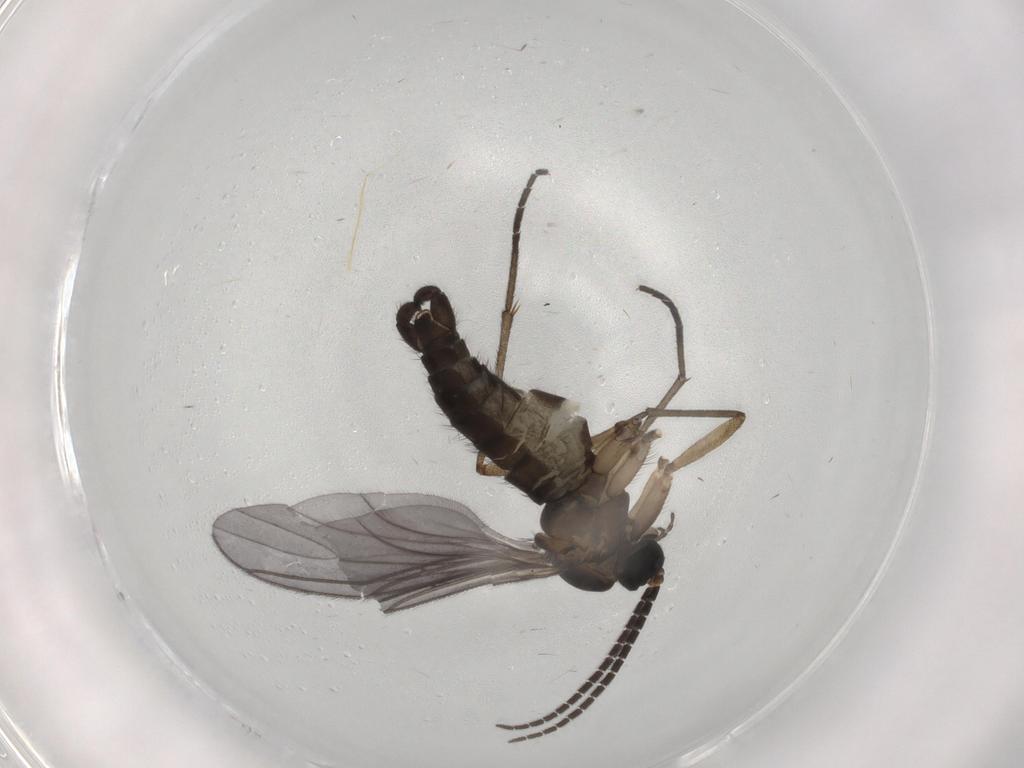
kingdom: Animalia
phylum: Arthropoda
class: Insecta
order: Diptera
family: Sciaridae
